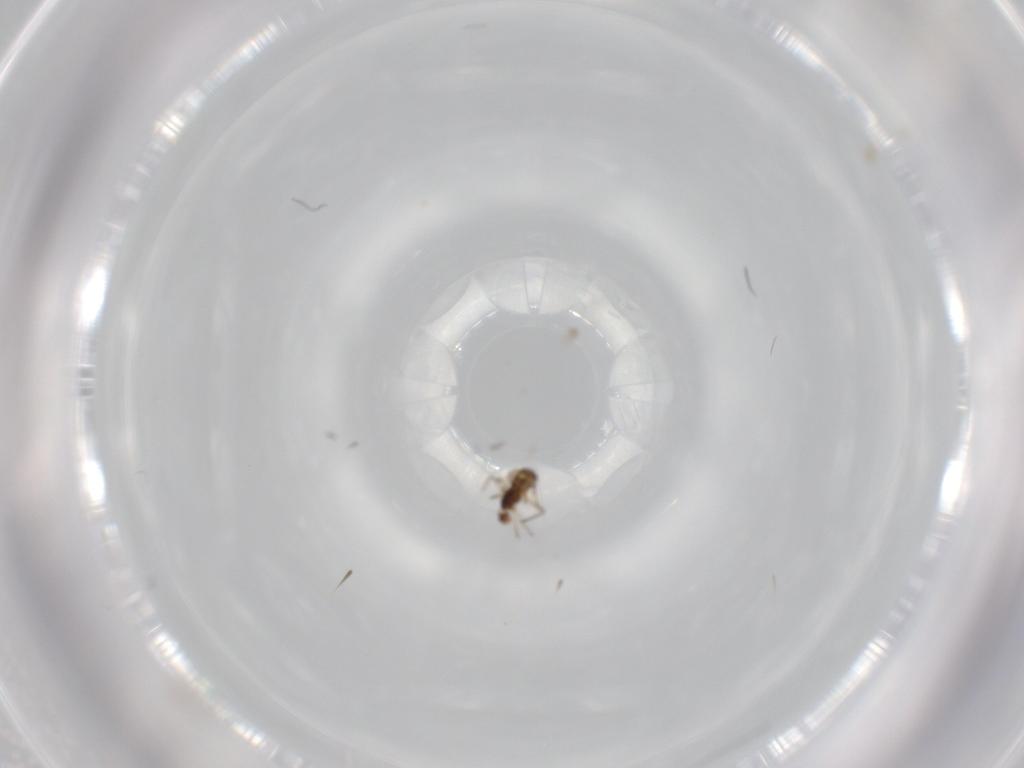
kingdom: Animalia
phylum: Arthropoda
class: Insecta
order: Diptera
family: Chironomidae
